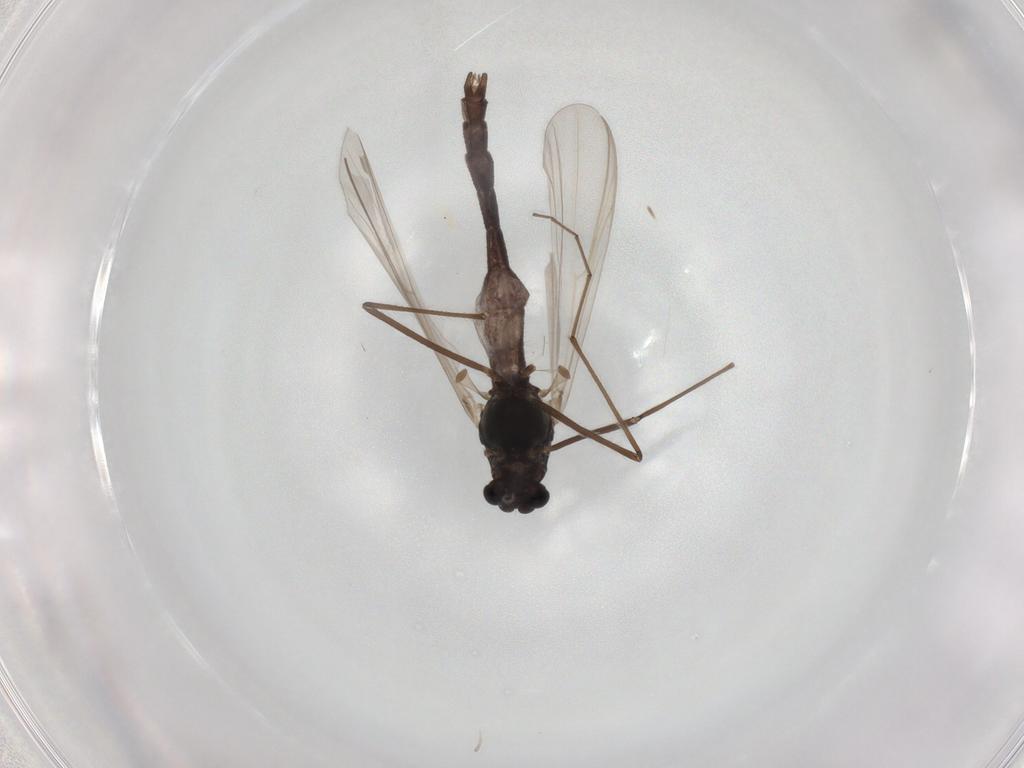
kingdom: Animalia
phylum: Arthropoda
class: Insecta
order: Diptera
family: Chironomidae
